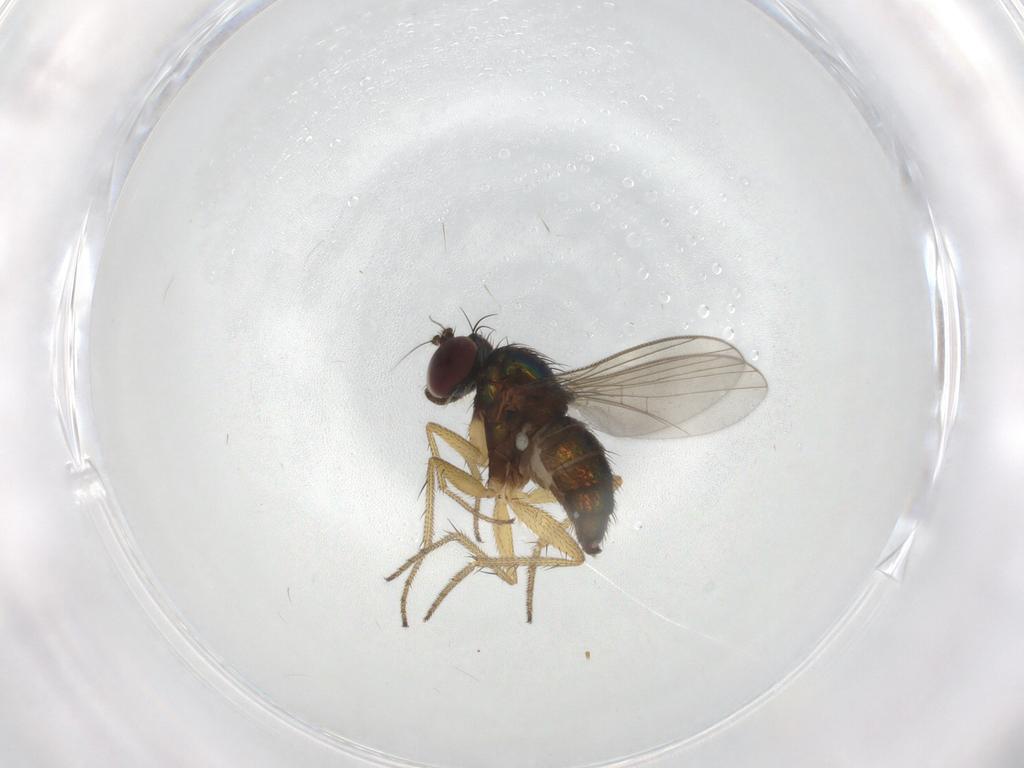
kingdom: Animalia
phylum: Arthropoda
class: Insecta
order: Diptera
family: Dolichopodidae
